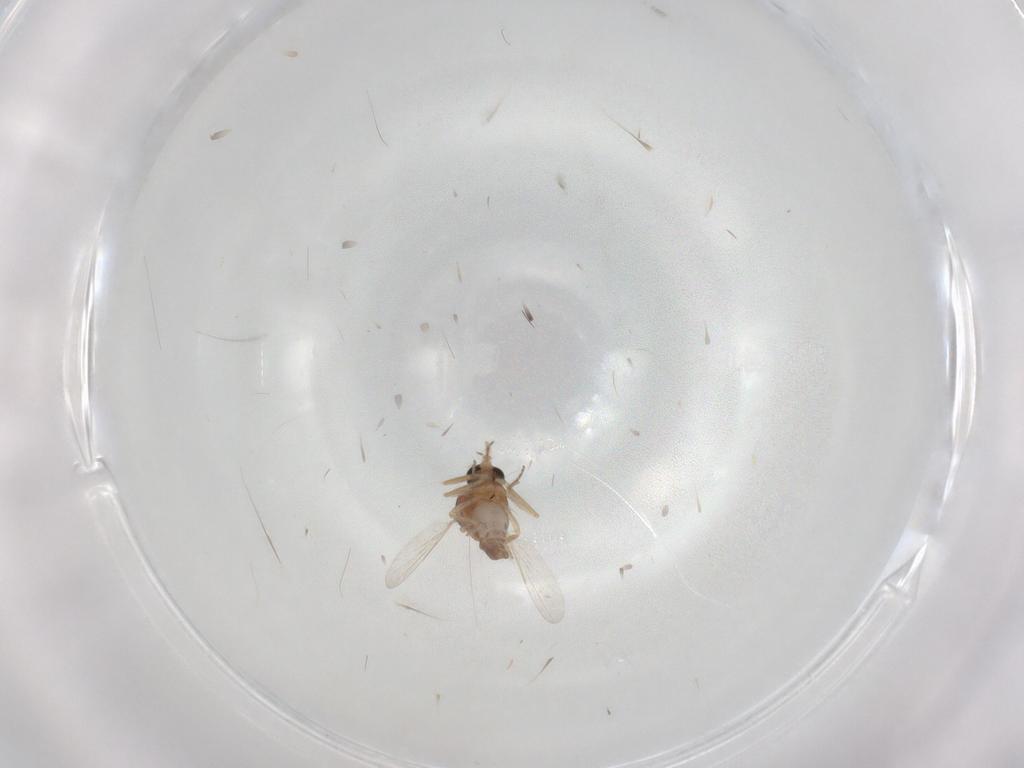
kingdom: Animalia
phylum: Arthropoda
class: Insecta
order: Diptera
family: Ceratopogonidae
